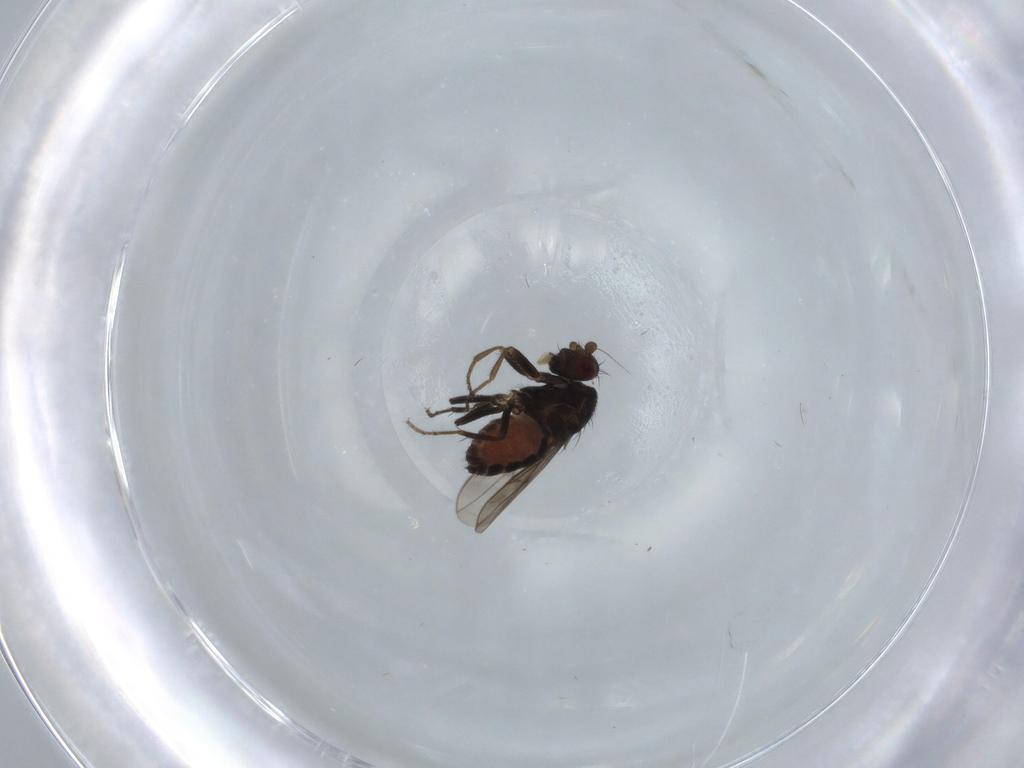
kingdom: Animalia
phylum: Arthropoda
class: Insecta
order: Diptera
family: Sphaeroceridae
